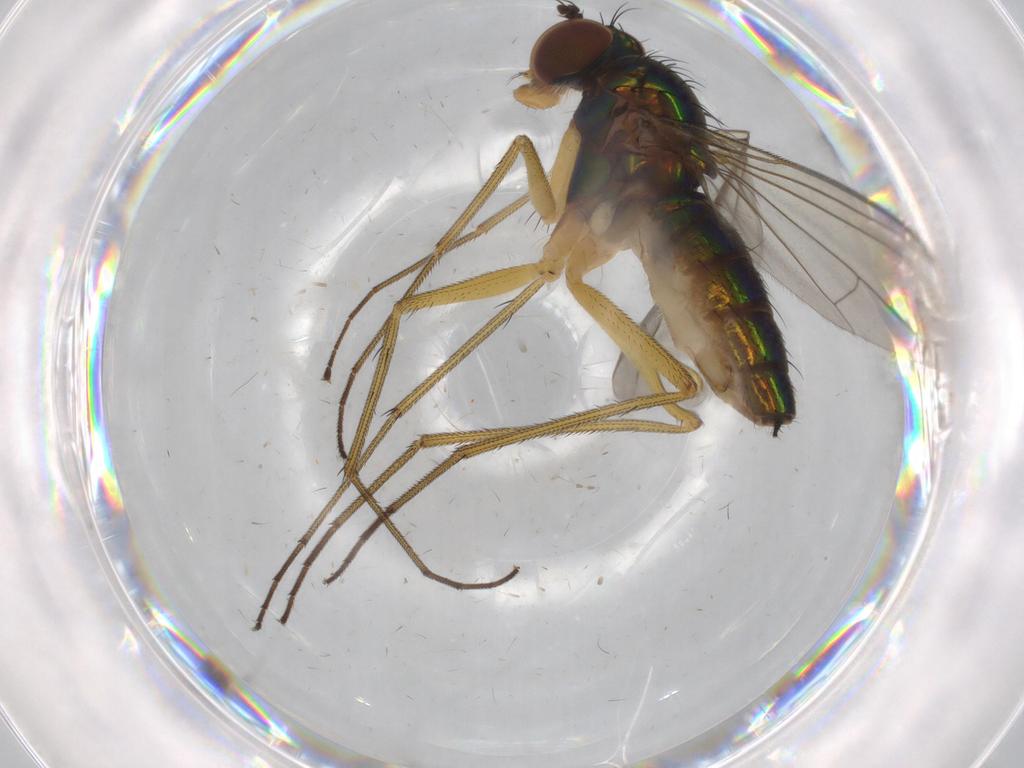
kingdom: Animalia
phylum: Arthropoda
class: Insecta
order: Diptera
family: Dolichopodidae
